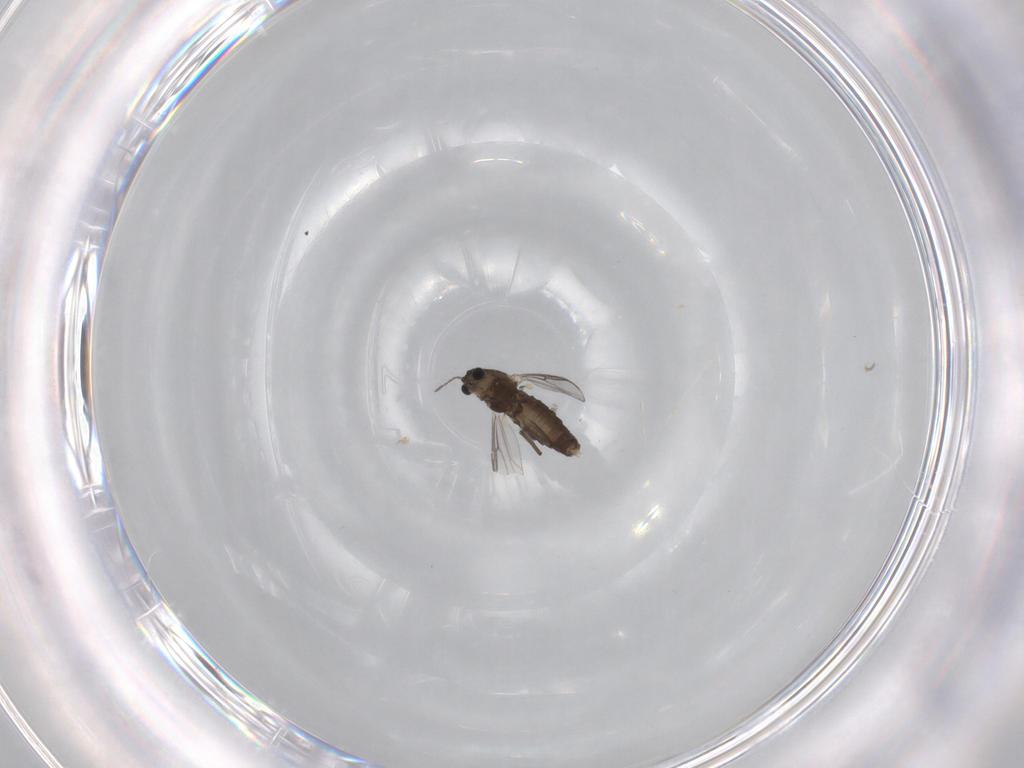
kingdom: Animalia
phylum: Arthropoda
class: Insecta
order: Diptera
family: Chironomidae
